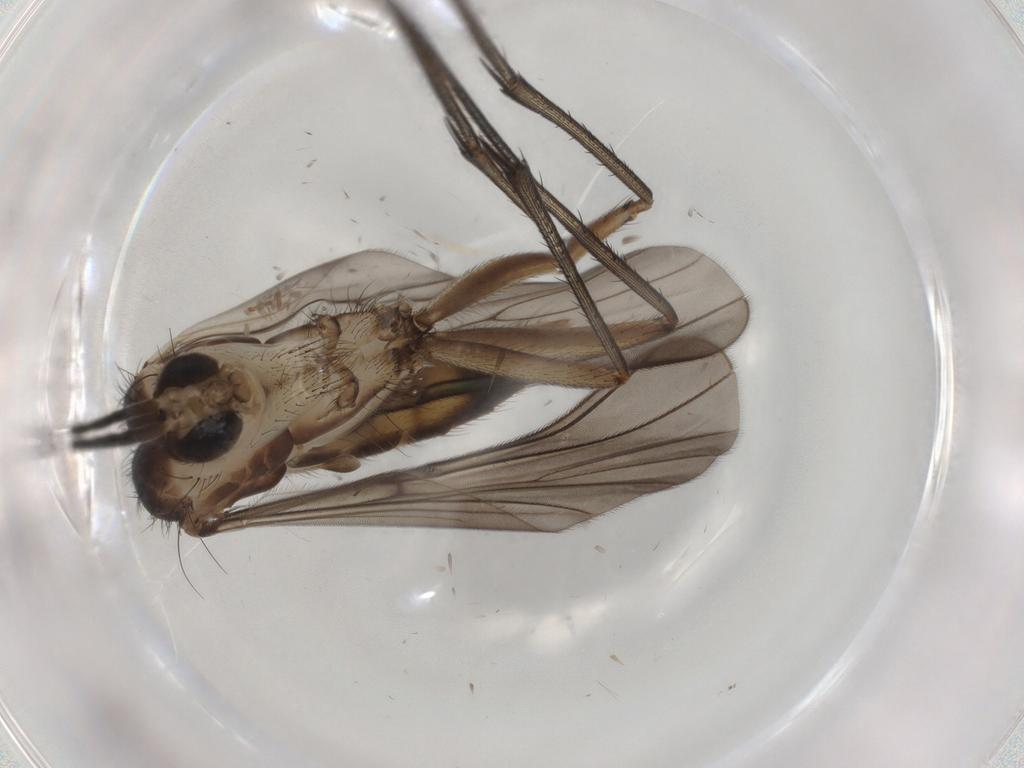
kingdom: Animalia
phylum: Arthropoda
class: Insecta
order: Diptera
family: Mycetophilidae
